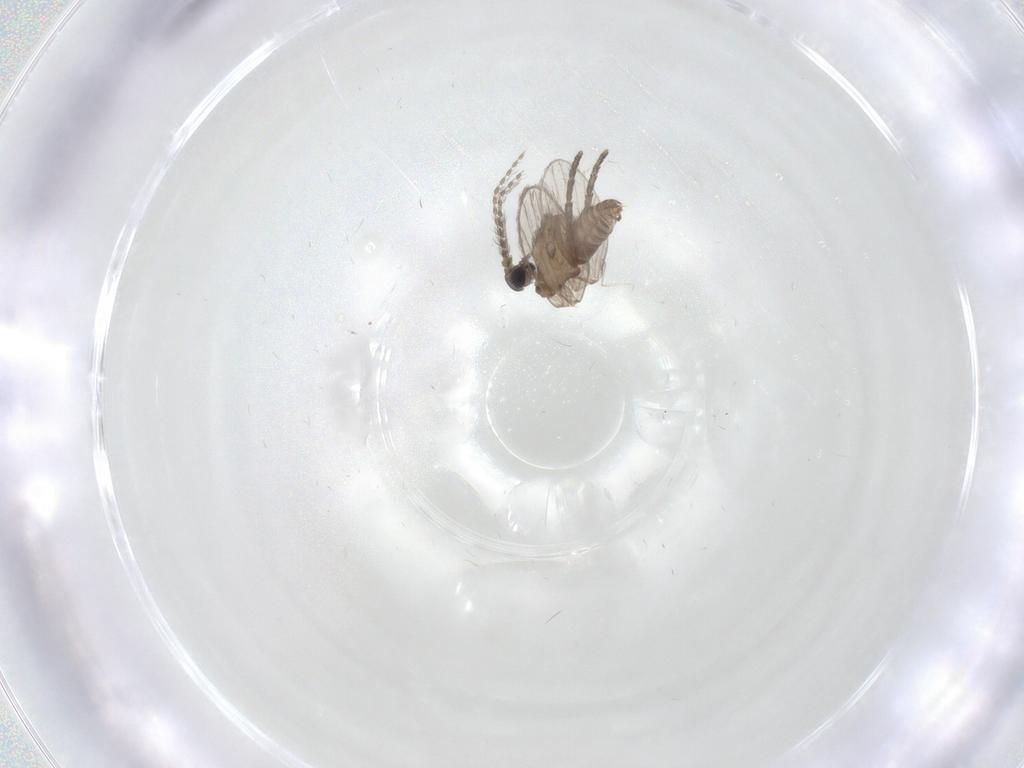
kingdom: Animalia
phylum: Arthropoda
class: Insecta
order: Diptera
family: Psychodidae
